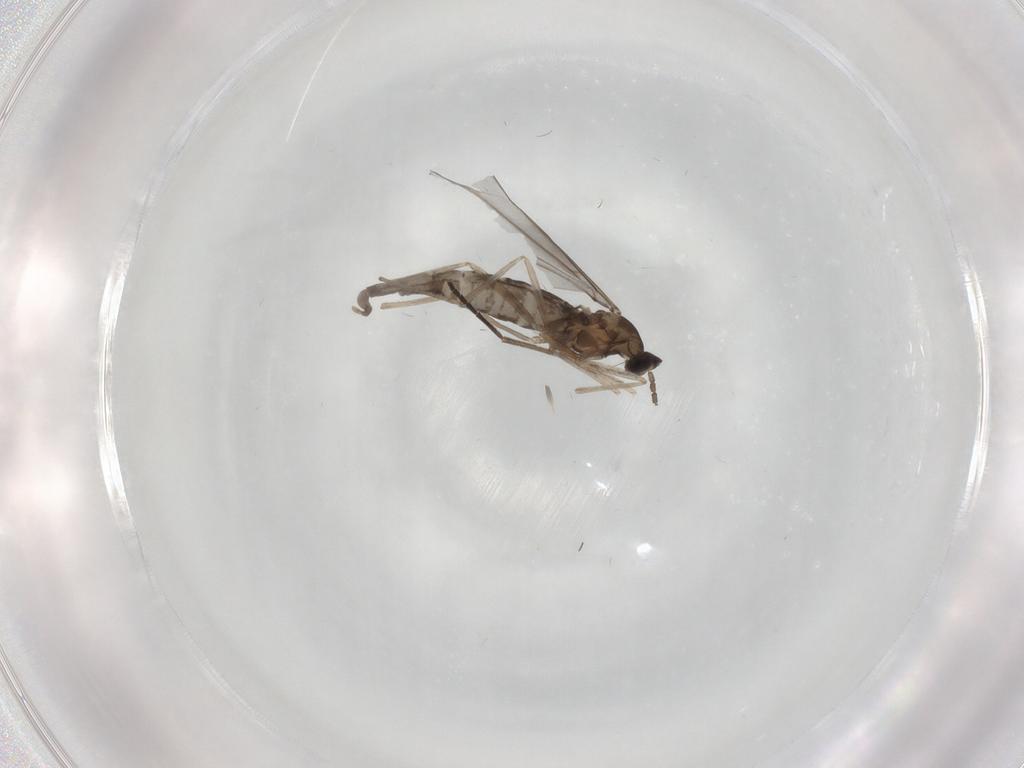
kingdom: Animalia
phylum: Arthropoda
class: Insecta
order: Diptera
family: Cecidomyiidae
